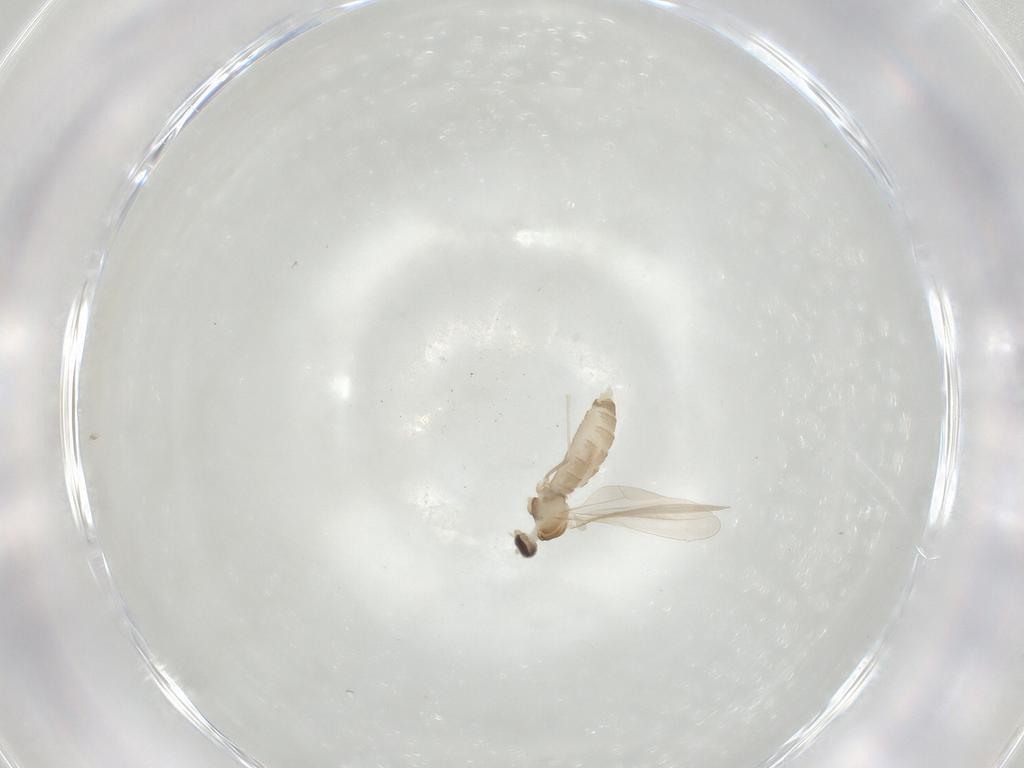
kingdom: Animalia
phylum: Arthropoda
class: Insecta
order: Diptera
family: Cecidomyiidae
